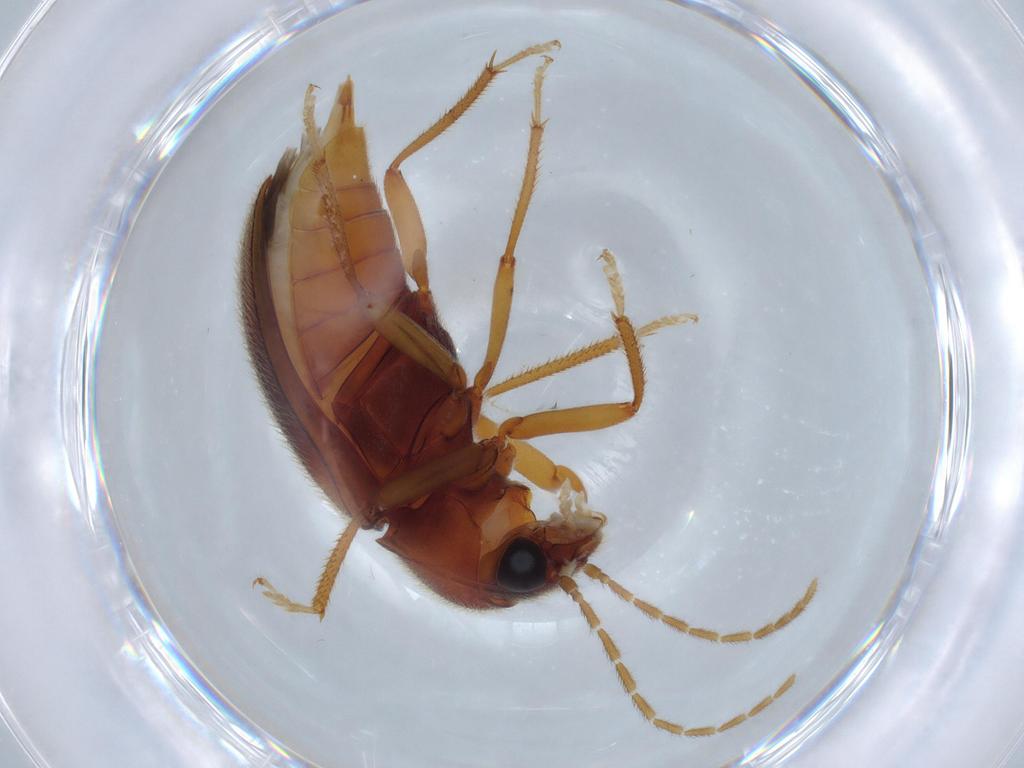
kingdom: Animalia
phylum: Arthropoda
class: Insecta
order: Coleoptera
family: Ptilodactylidae
